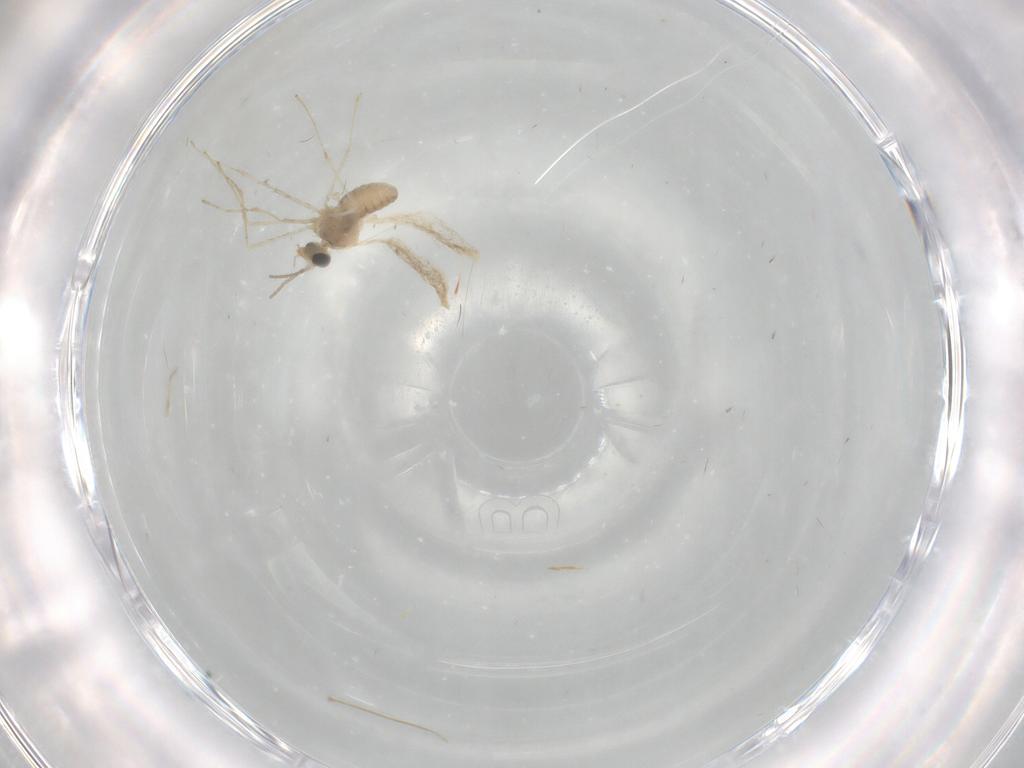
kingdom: Animalia
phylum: Arthropoda
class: Insecta
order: Diptera
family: Cecidomyiidae
